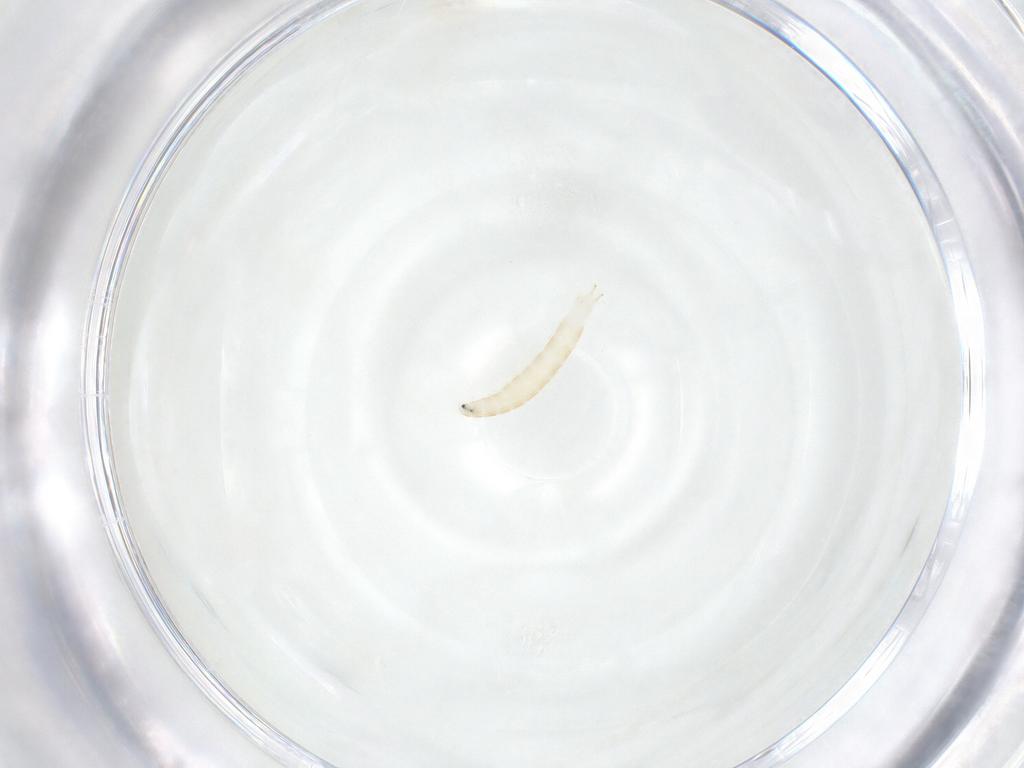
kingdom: Animalia
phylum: Arthropoda
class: Insecta
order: Diptera
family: Tachinidae
